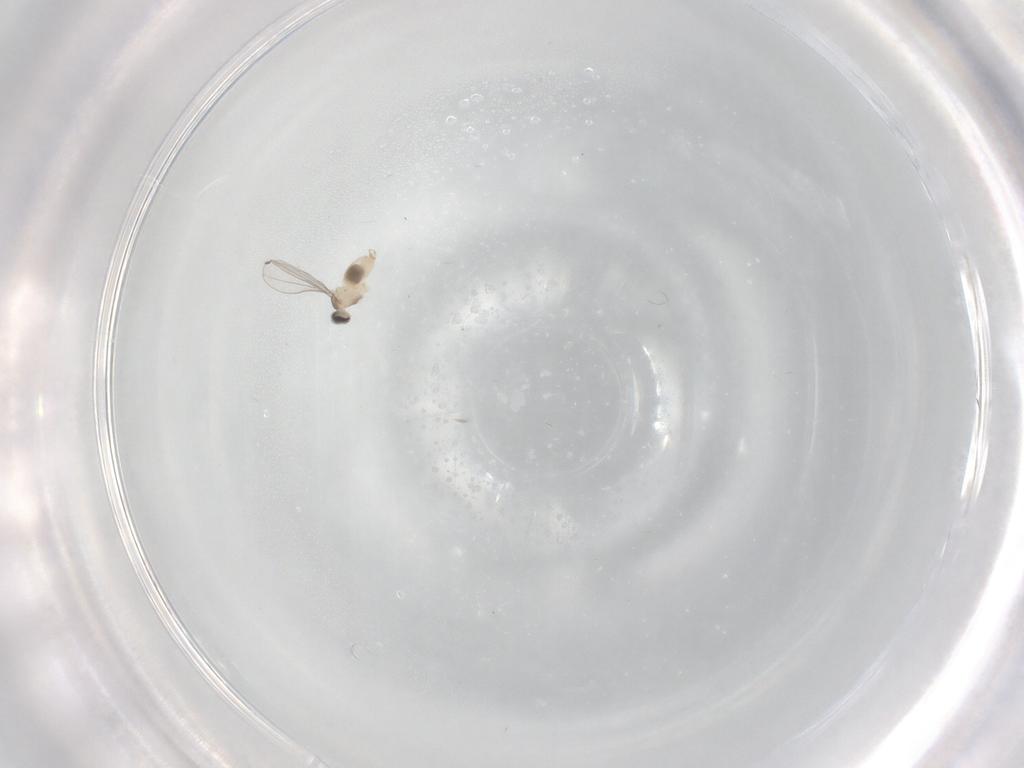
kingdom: Animalia
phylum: Arthropoda
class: Insecta
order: Diptera
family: Cecidomyiidae
